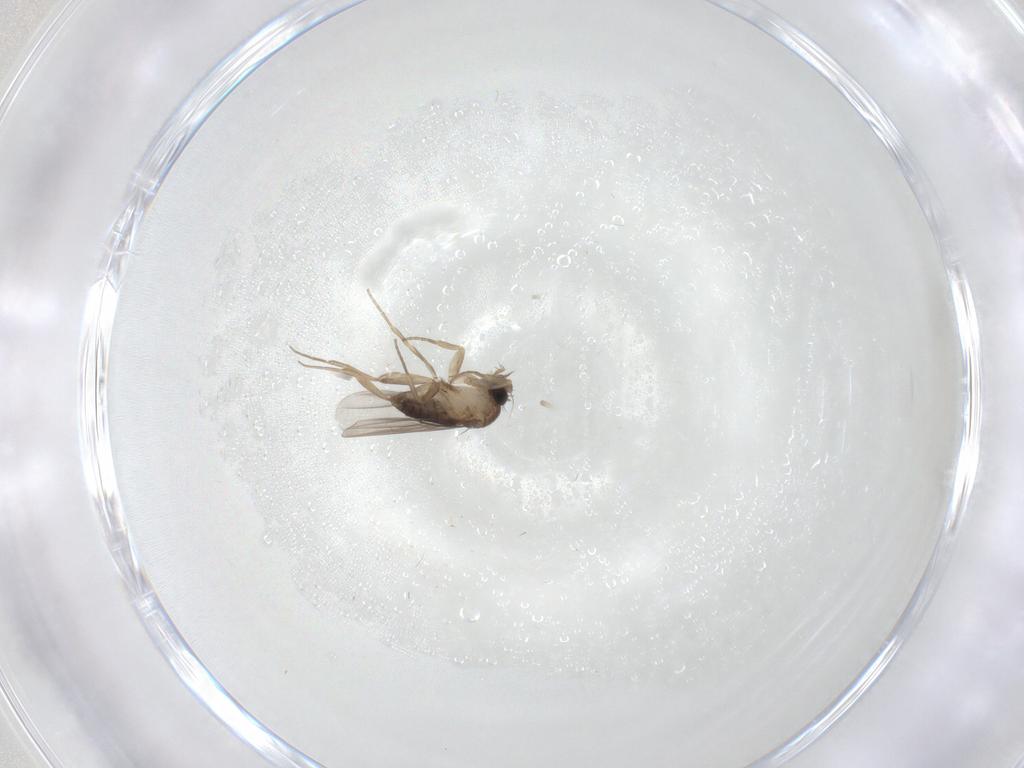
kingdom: Animalia
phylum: Arthropoda
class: Insecta
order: Diptera
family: Phoridae
